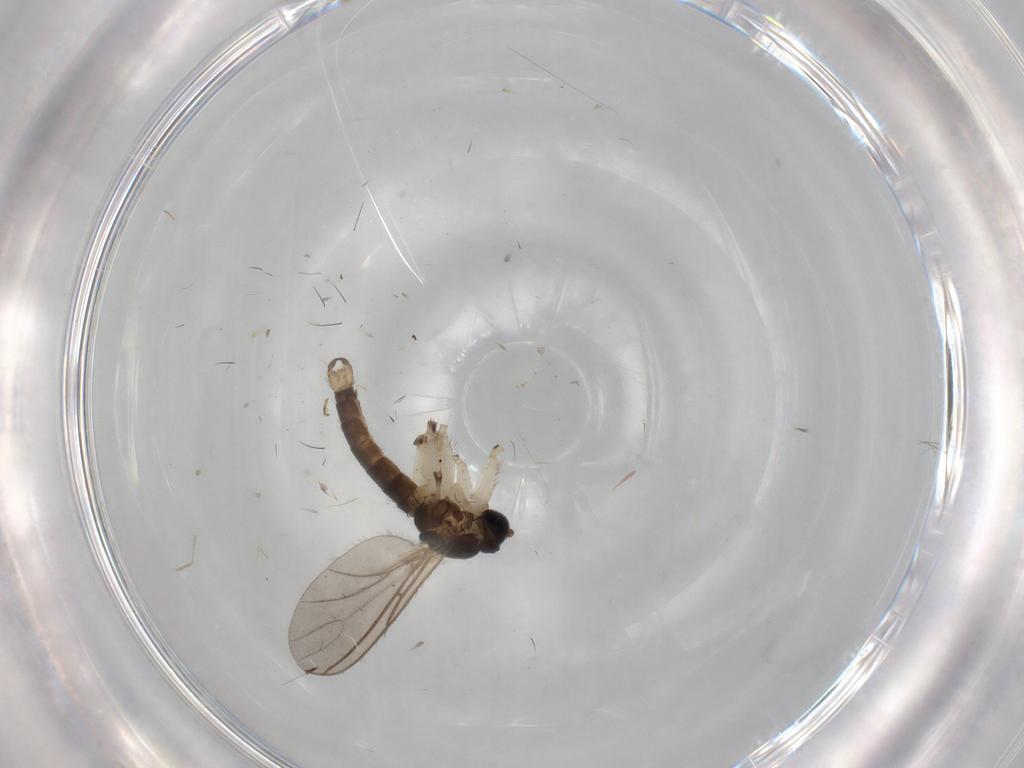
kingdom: Animalia
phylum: Arthropoda
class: Insecta
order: Diptera
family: Sciaridae
